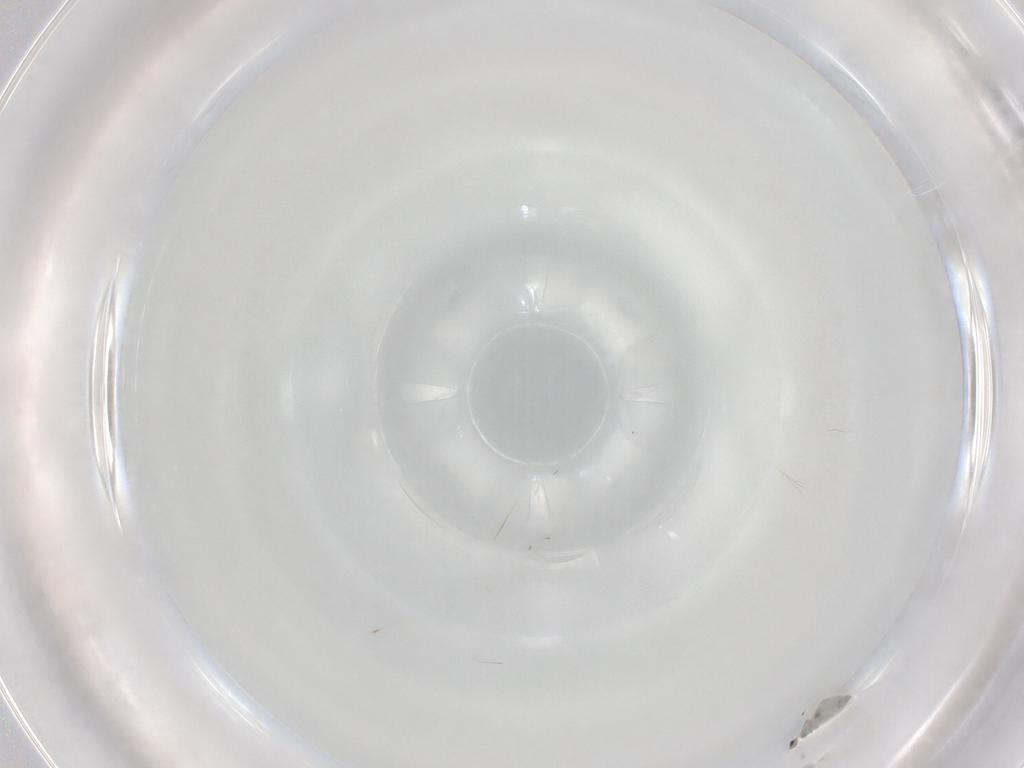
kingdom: Animalia
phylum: Arthropoda
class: Insecta
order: Diptera
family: Cecidomyiidae
